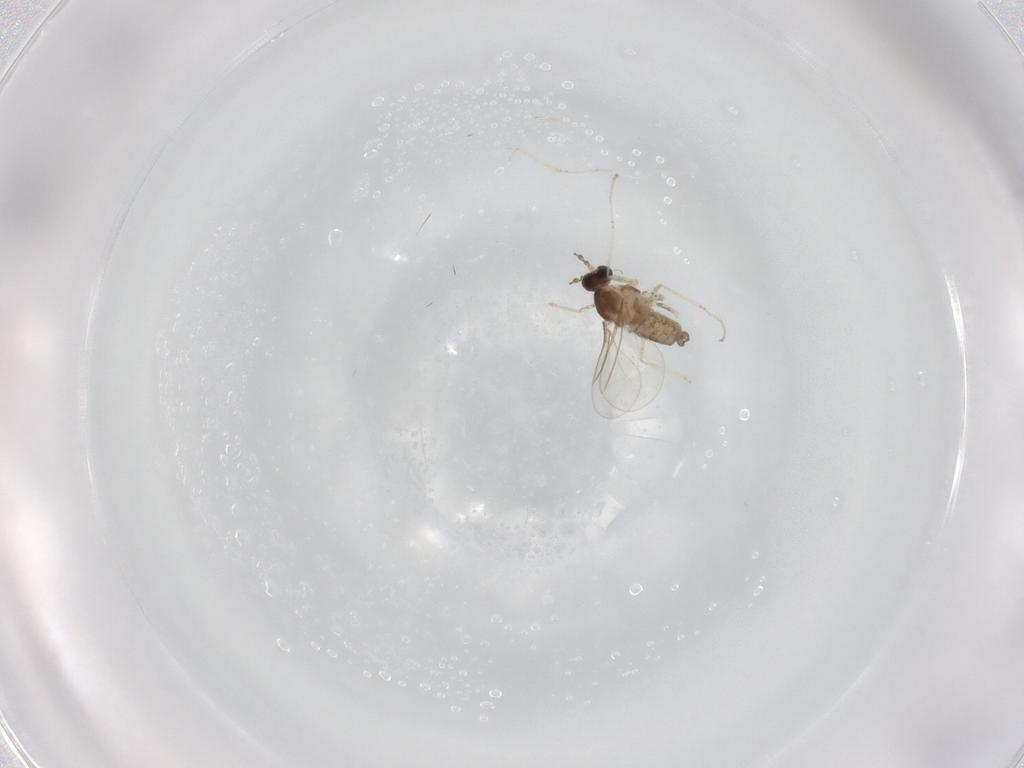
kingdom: Animalia
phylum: Arthropoda
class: Insecta
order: Diptera
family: Cecidomyiidae
